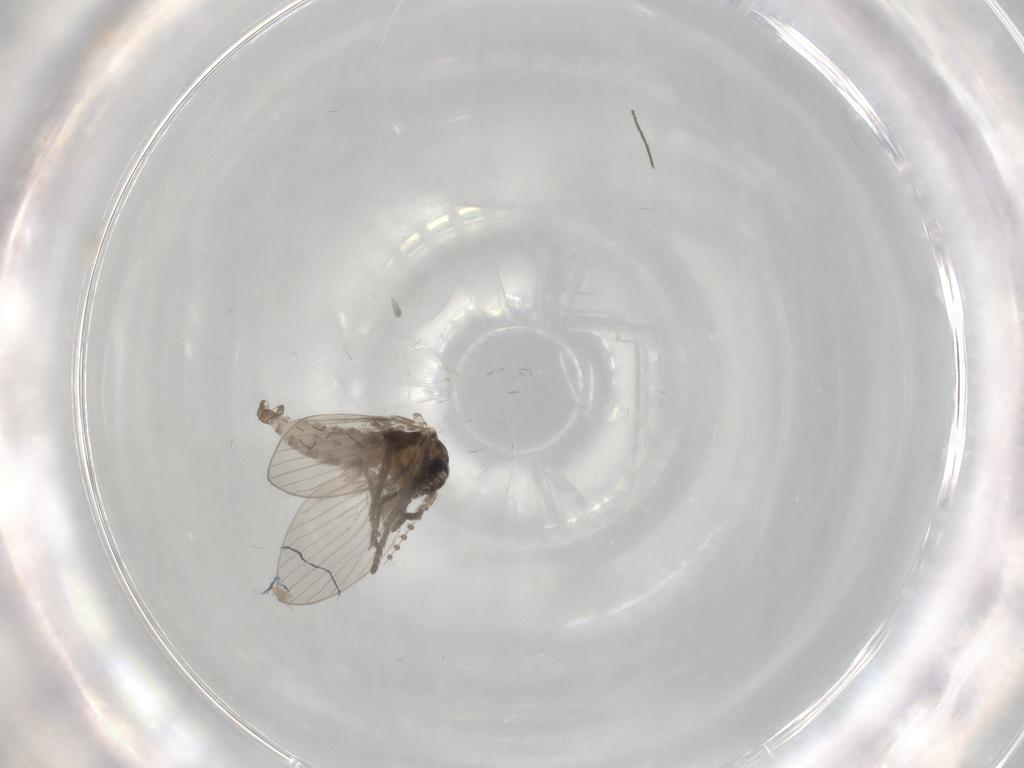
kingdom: Animalia
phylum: Arthropoda
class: Insecta
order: Diptera
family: Psychodidae
